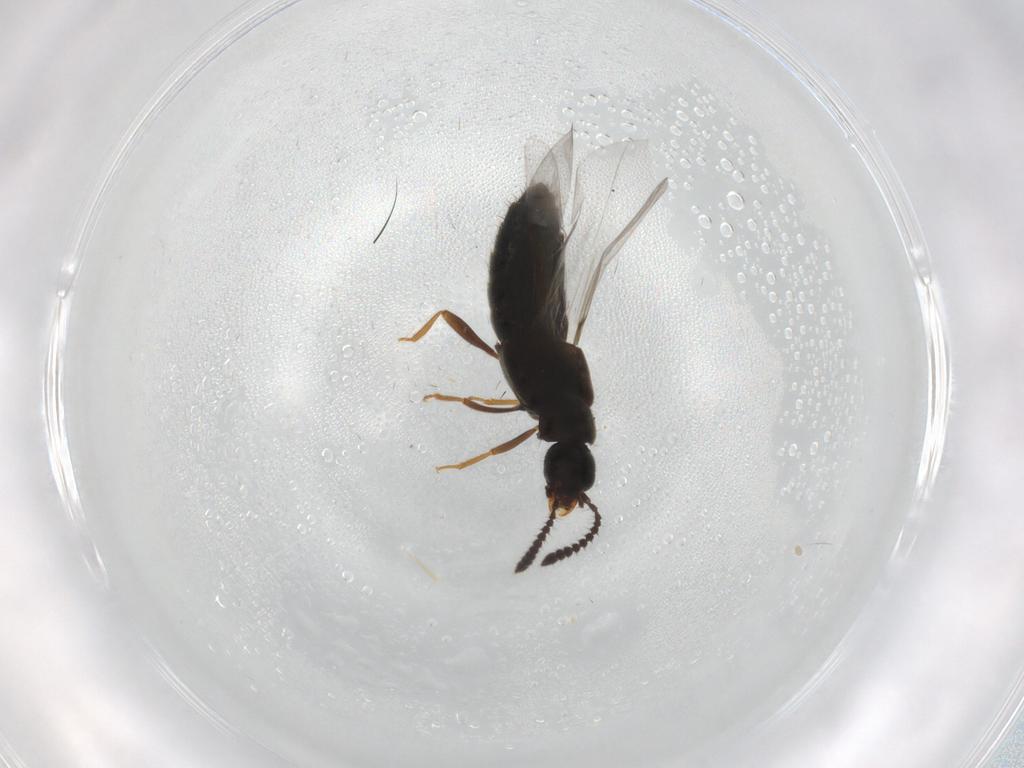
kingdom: Animalia
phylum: Arthropoda
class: Insecta
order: Coleoptera
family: Staphylinidae
